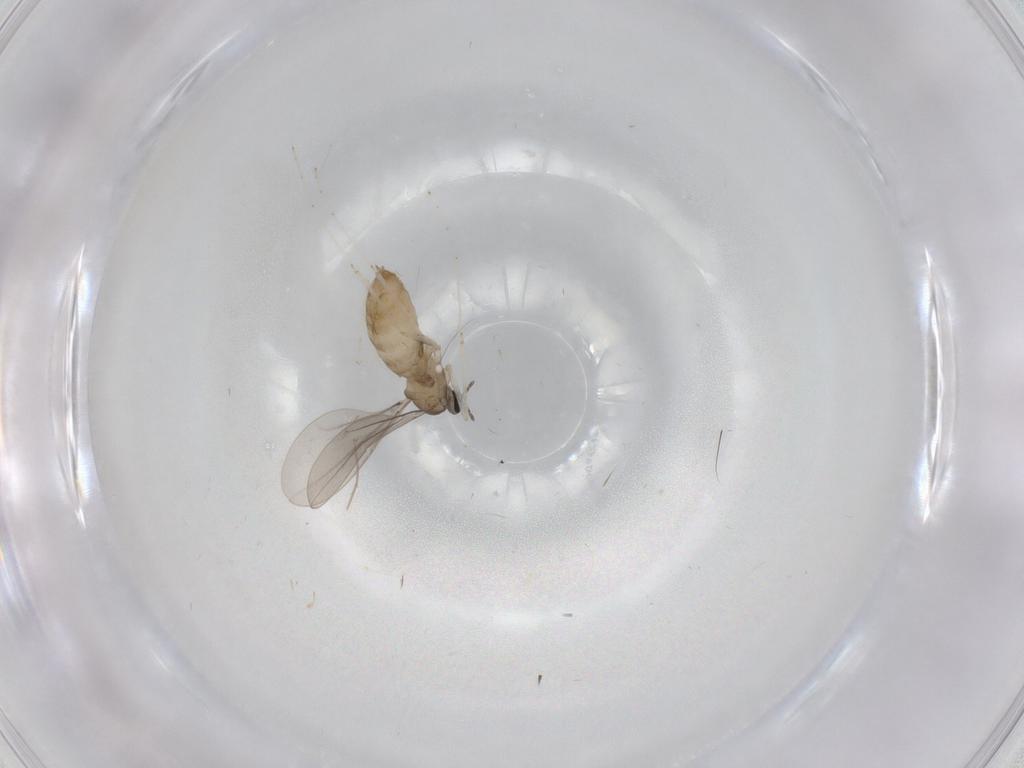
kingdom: Animalia
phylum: Arthropoda
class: Insecta
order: Diptera
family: Cecidomyiidae
